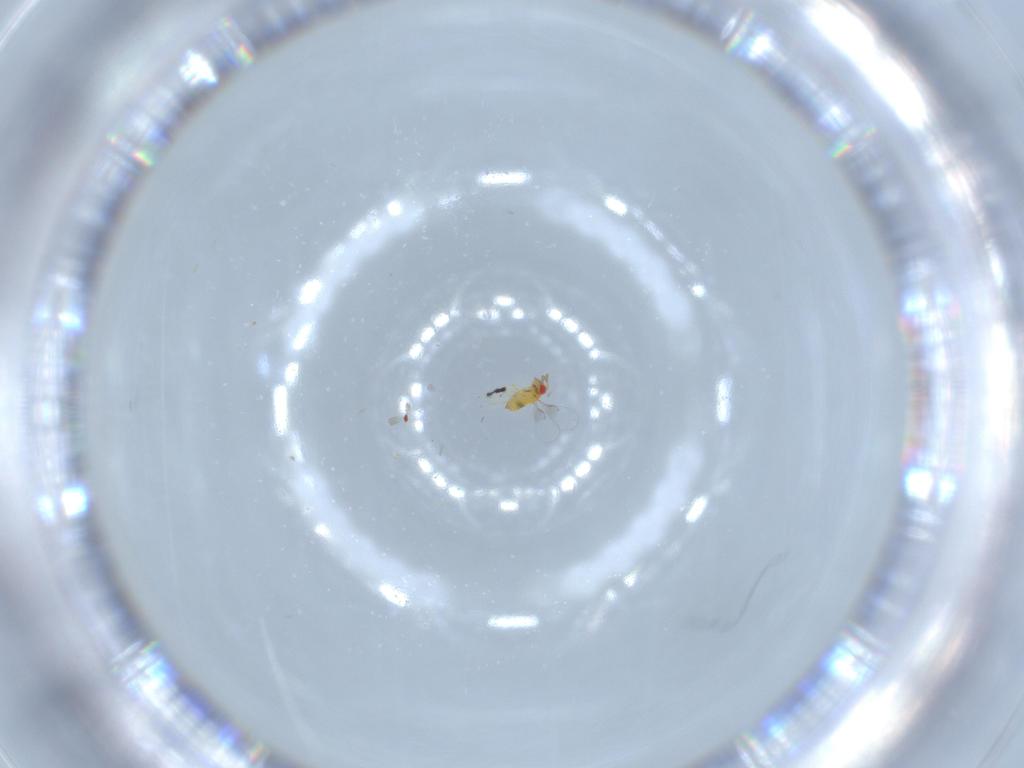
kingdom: Animalia
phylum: Arthropoda
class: Insecta
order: Hymenoptera
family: Trichogrammatidae
